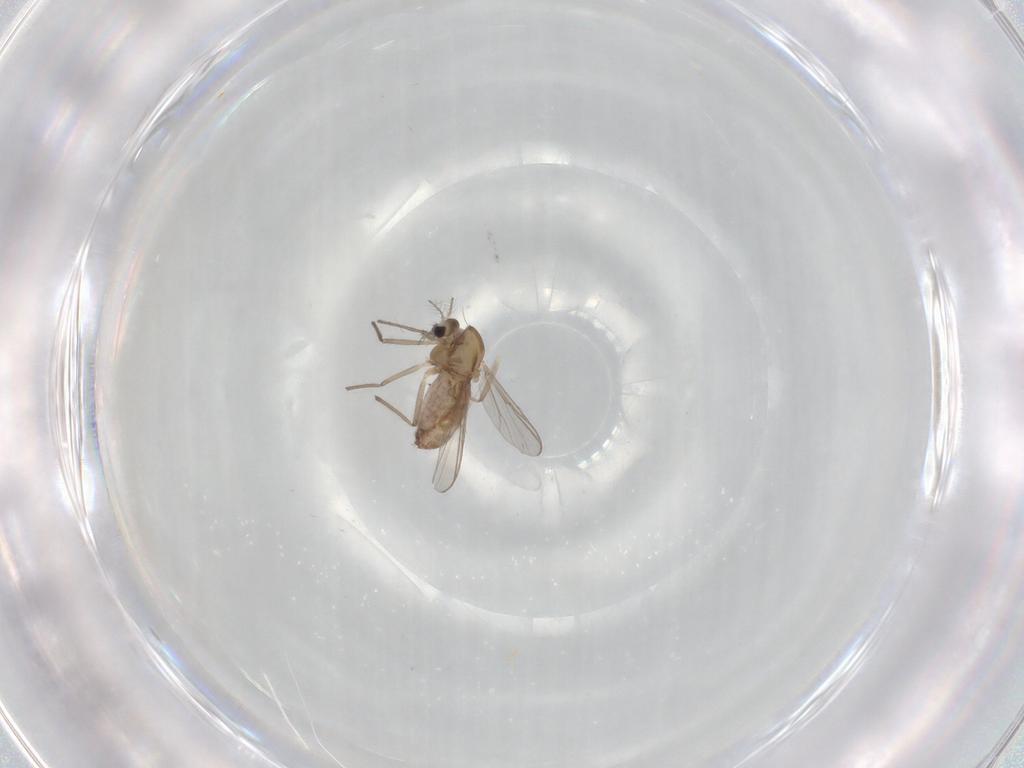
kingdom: Animalia
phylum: Arthropoda
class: Insecta
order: Diptera
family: Chironomidae
